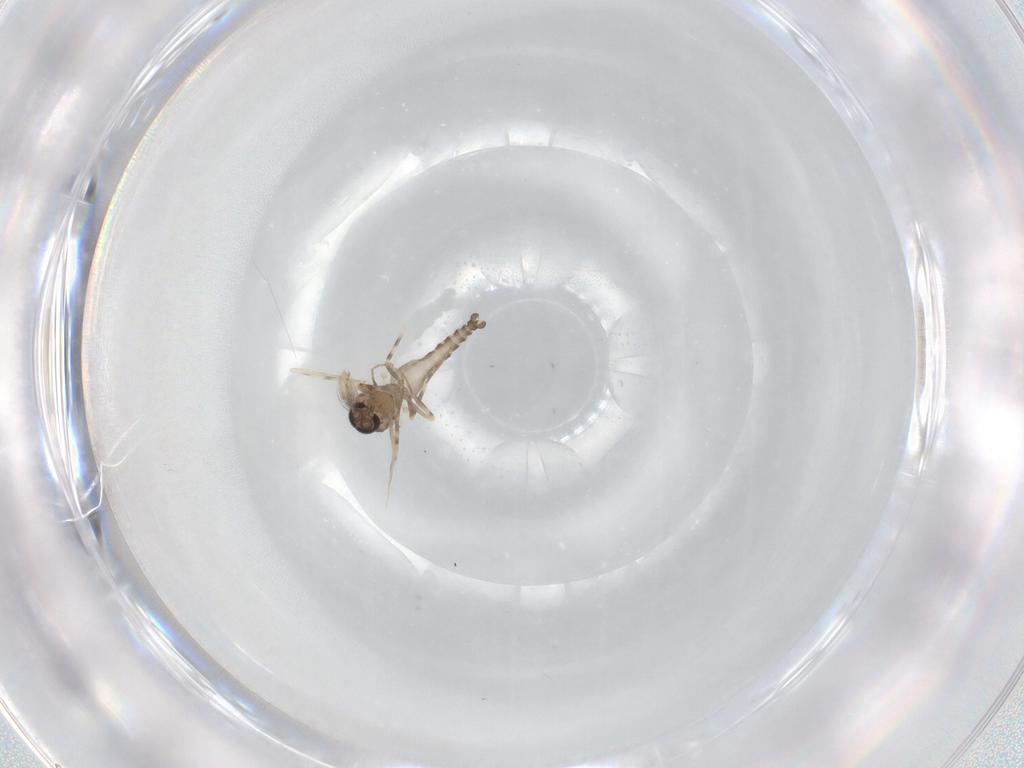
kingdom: Animalia
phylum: Arthropoda
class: Insecta
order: Diptera
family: Ceratopogonidae
